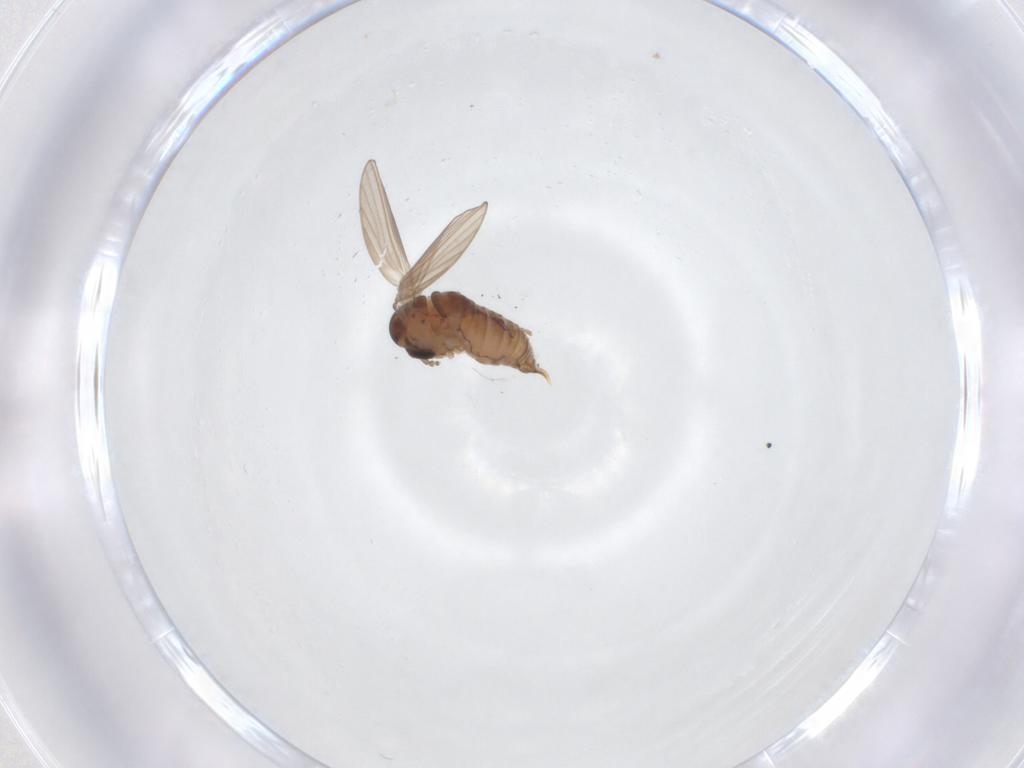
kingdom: Animalia
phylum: Arthropoda
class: Insecta
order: Diptera
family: Psychodidae
